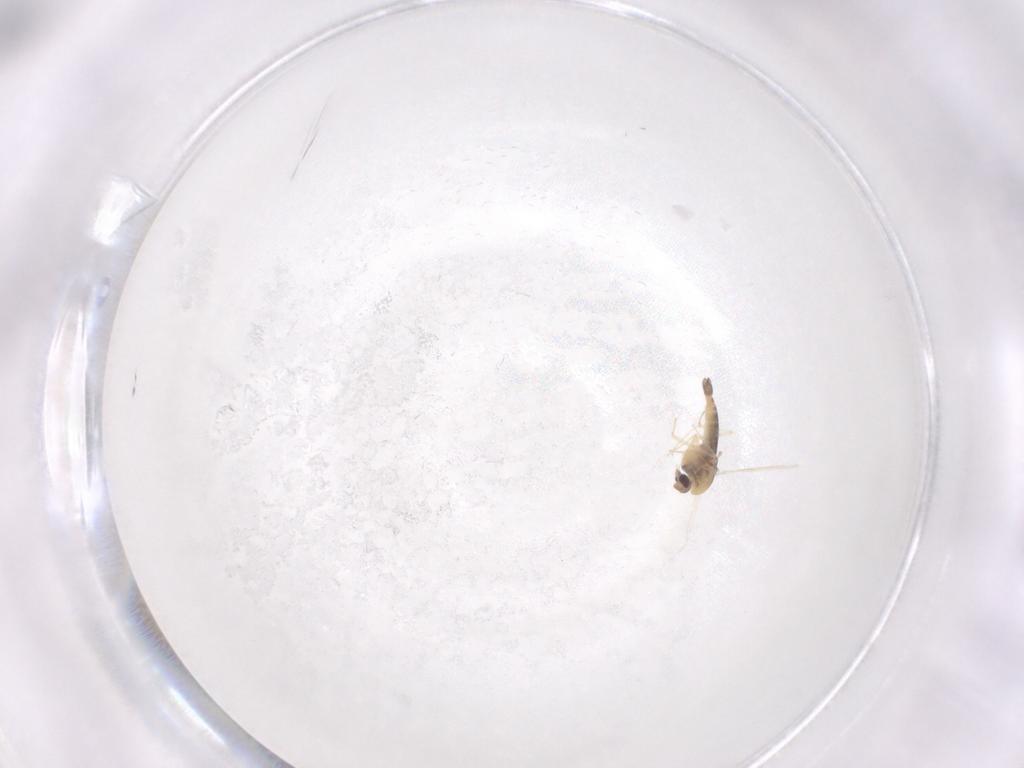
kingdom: Animalia
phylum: Arthropoda
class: Insecta
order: Diptera
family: Chironomidae
